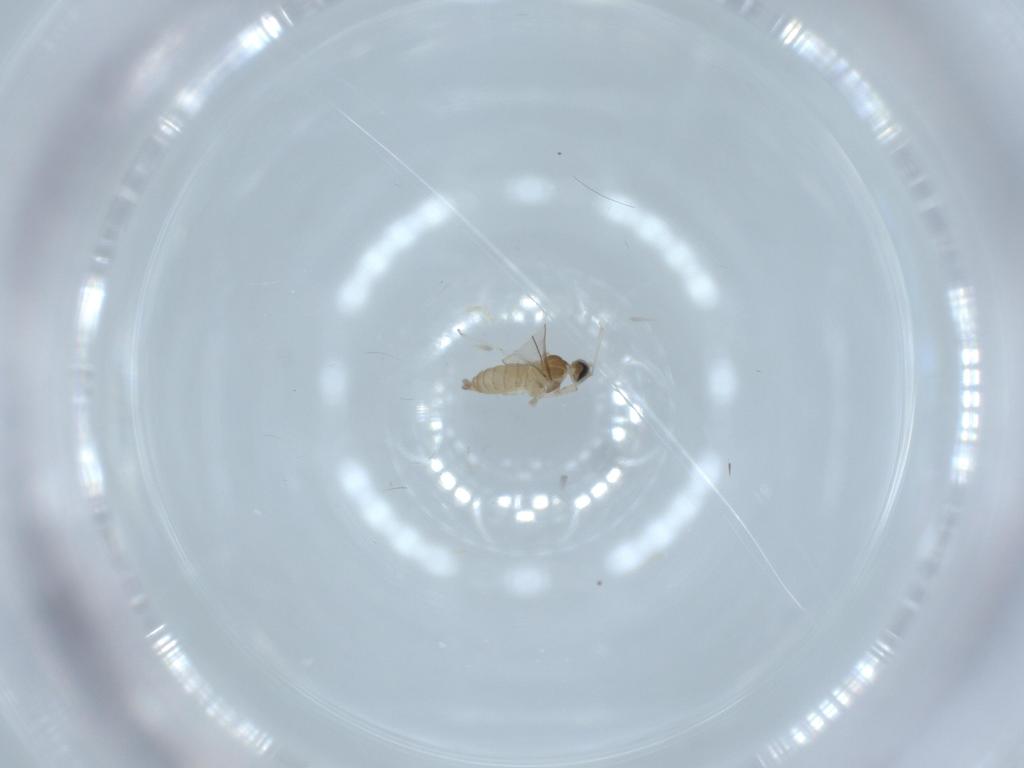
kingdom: Animalia
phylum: Arthropoda
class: Insecta
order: Diptera
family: Cecidomyiidae
